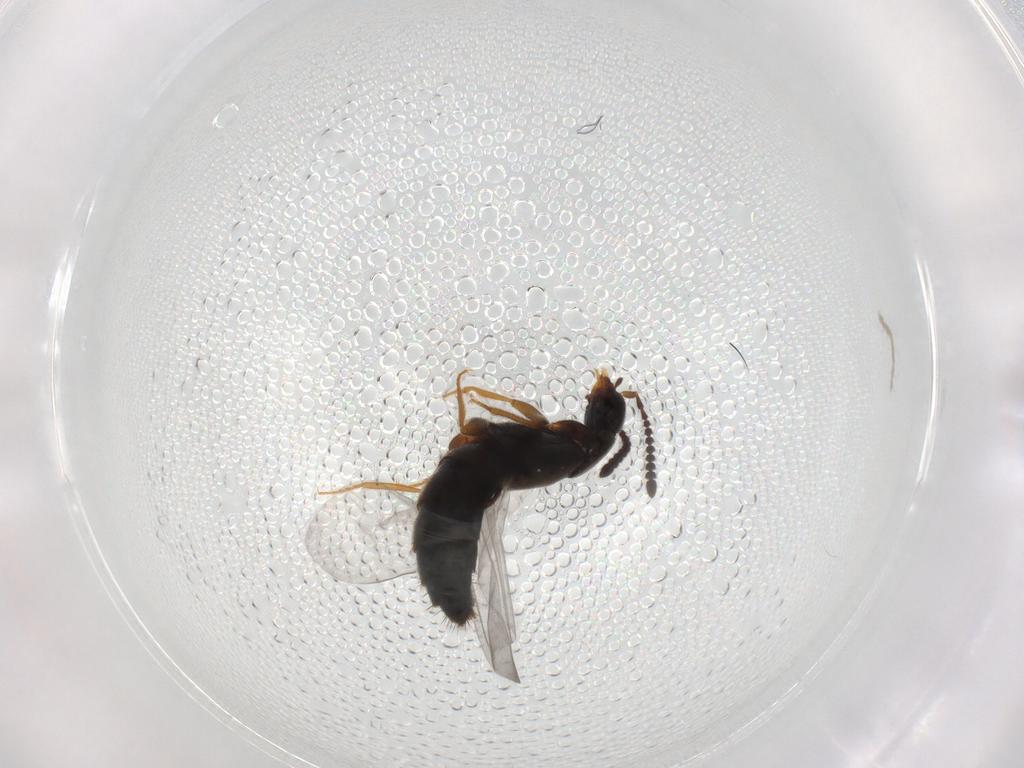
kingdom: Animalia
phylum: Arthropoda
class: Insecta
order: Coleoptera
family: Staphylinidae
